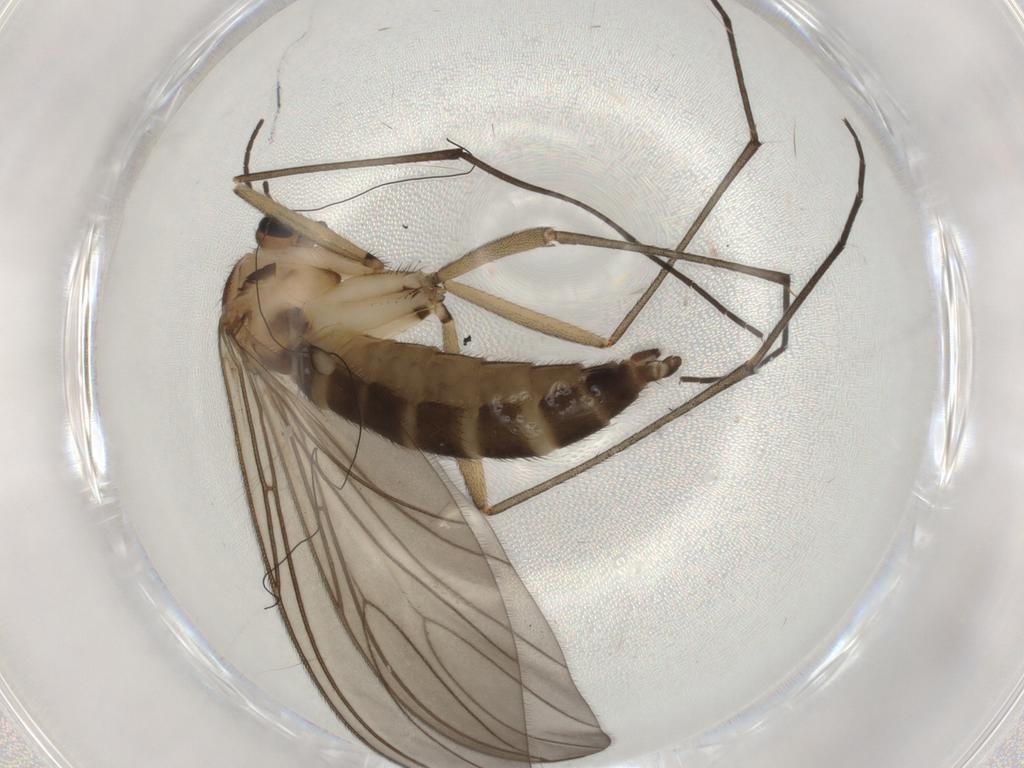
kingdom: Animalia
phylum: Arthropoda
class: Insecta
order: Diptera
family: Sciaridae
